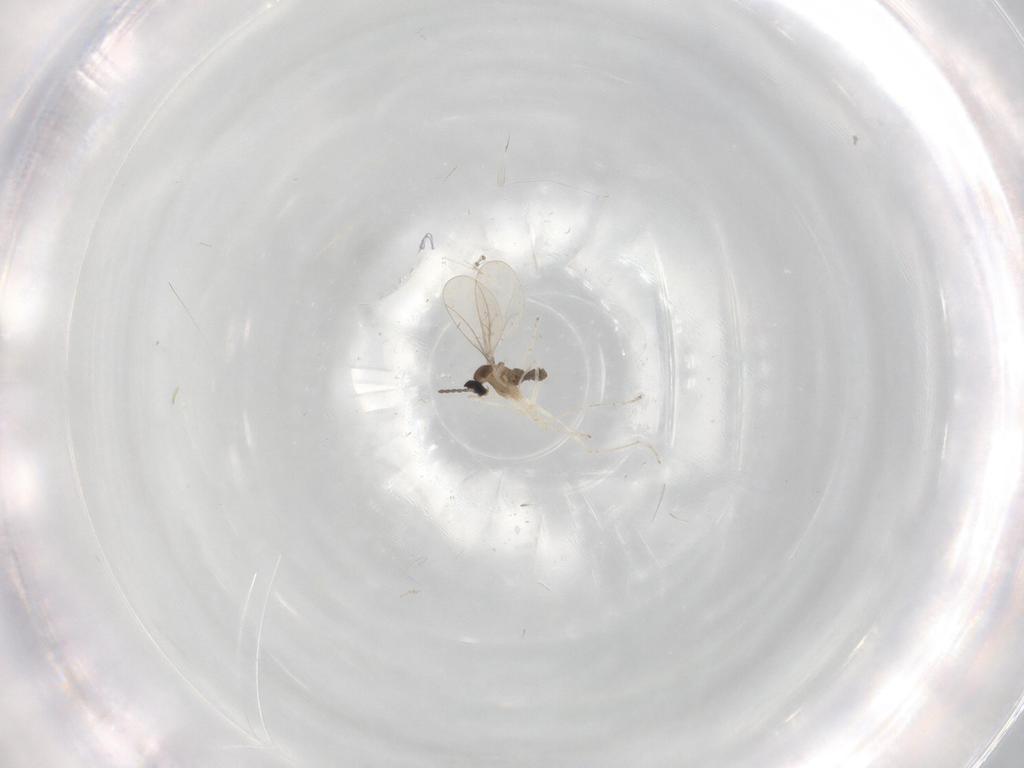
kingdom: Animalia
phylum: Arthropoda
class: Insecta
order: Diptera
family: Cecidomyiidae
